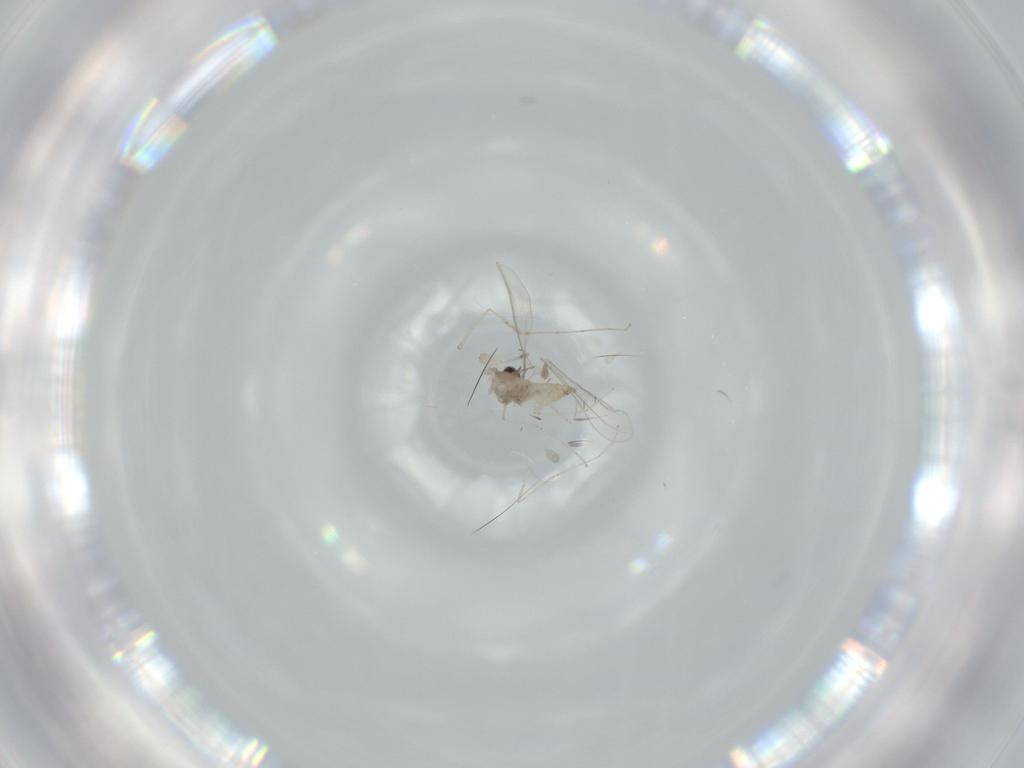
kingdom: Animalia
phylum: Arthropoda
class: Insecta
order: Diptera
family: Cecidomyiidae
